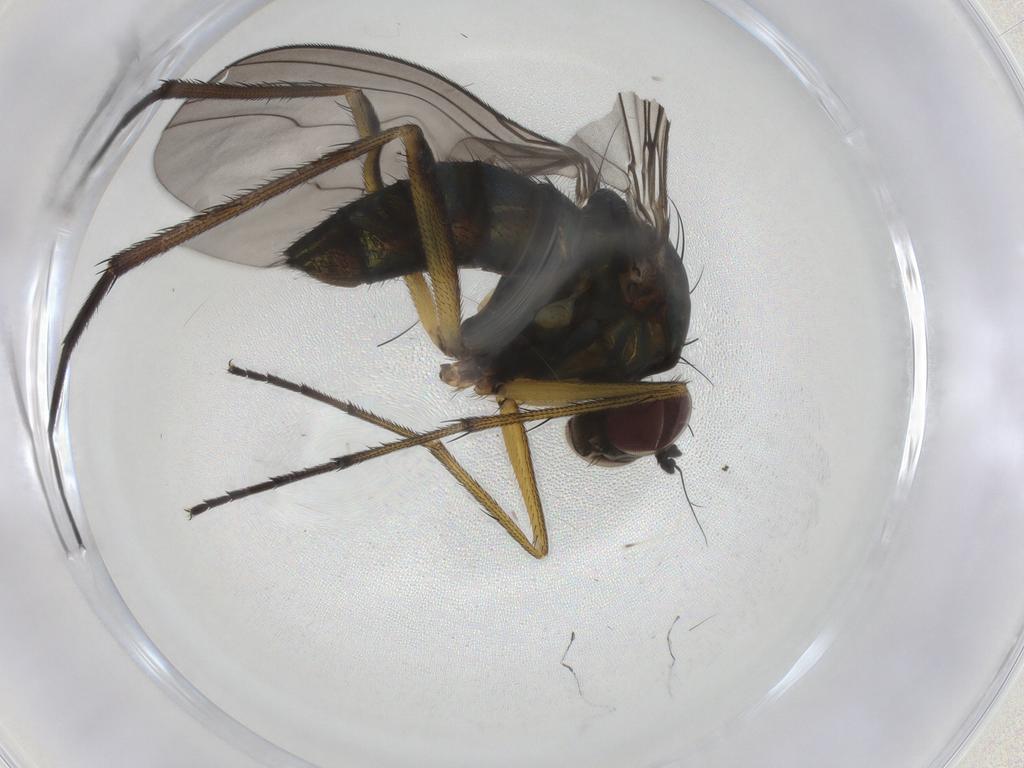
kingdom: Animalia
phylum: Arthropoda
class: Insecta
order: Diptera
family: Dolichopodidae
